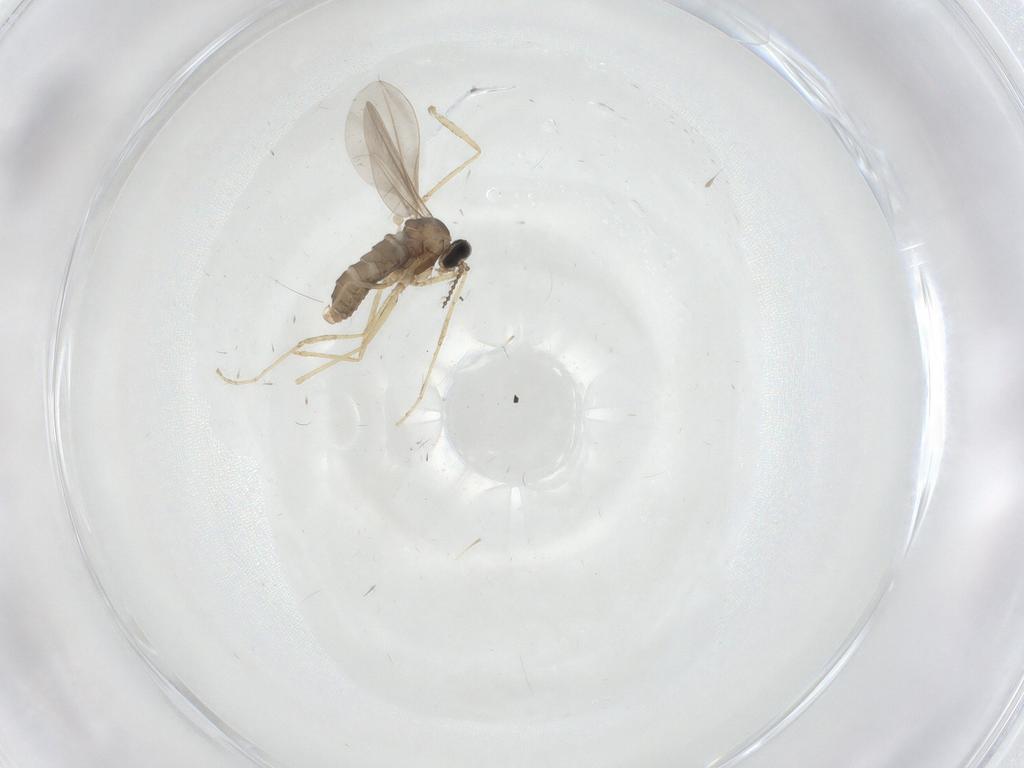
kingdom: Animalia
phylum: Arthropoda
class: Insecta
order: Diptera
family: Cecidomyiidae
